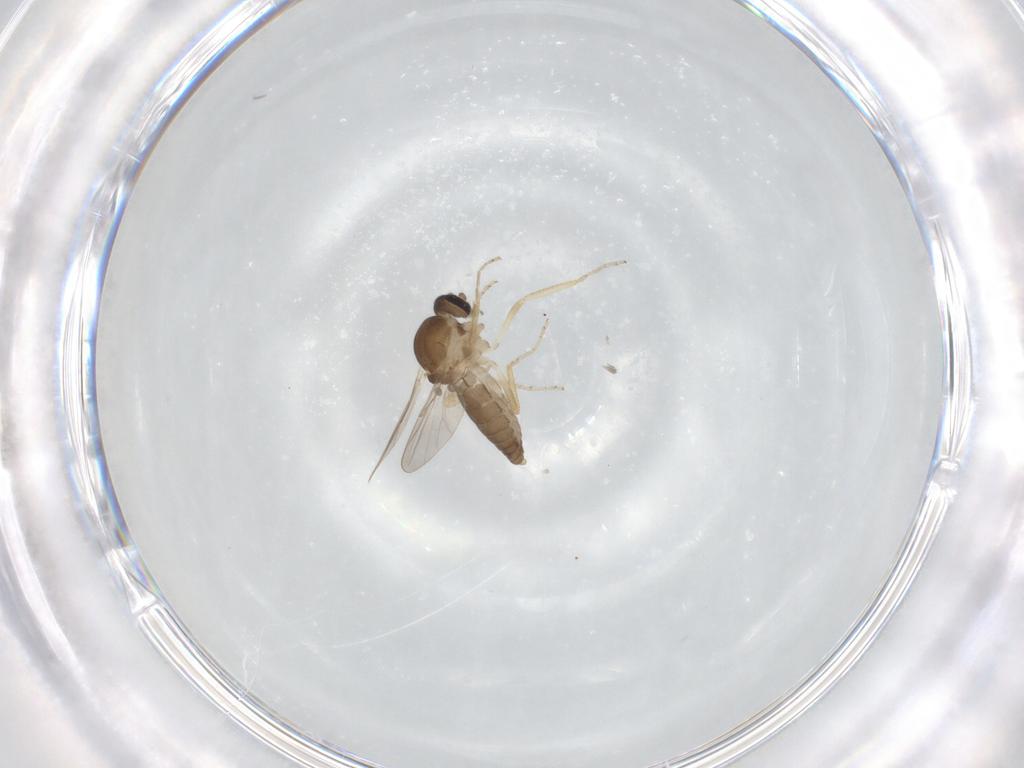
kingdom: Animalia
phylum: Arthropoda
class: Insecta
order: Diptera
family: Ceratopogonidae
